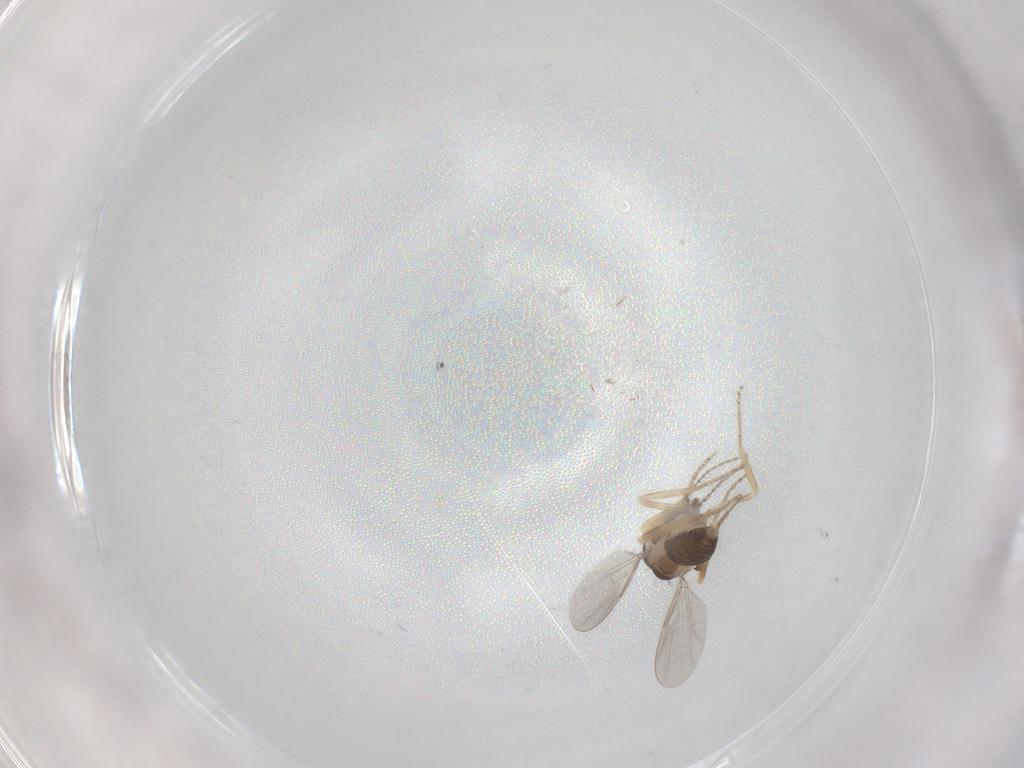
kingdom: Animalia
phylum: Arthropoda
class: Insecta
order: Diptera
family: Ceratopogonidae
